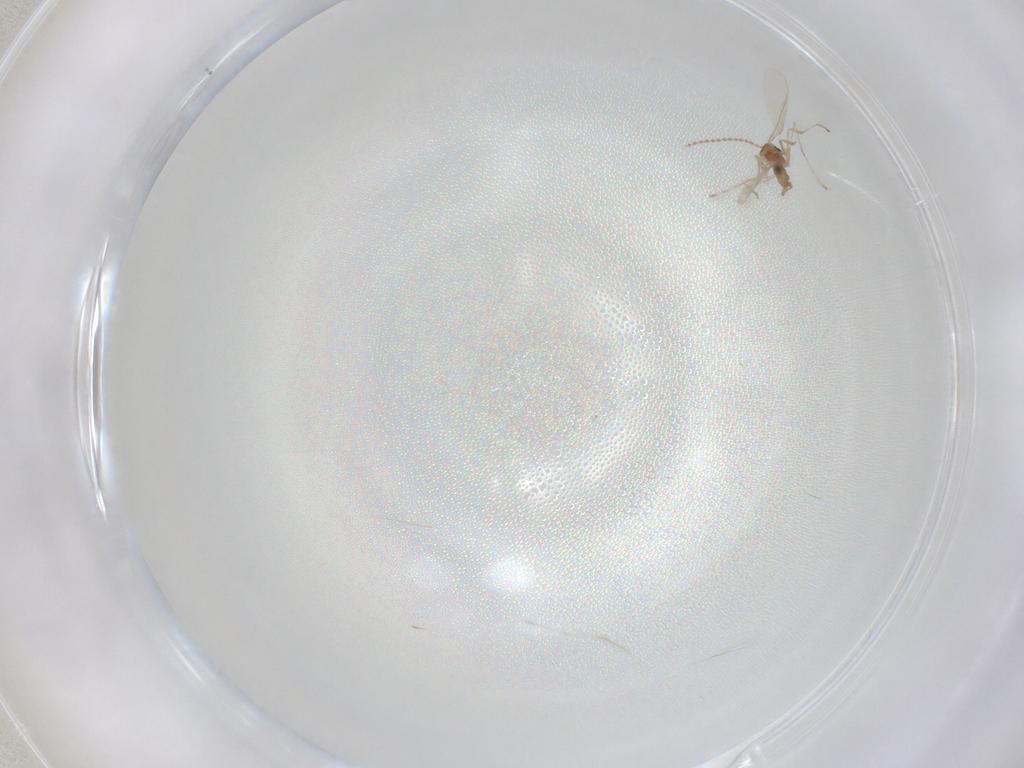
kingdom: Animalia
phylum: Arthropoda
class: Insecta
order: Diptera
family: Cecidomyiidae
